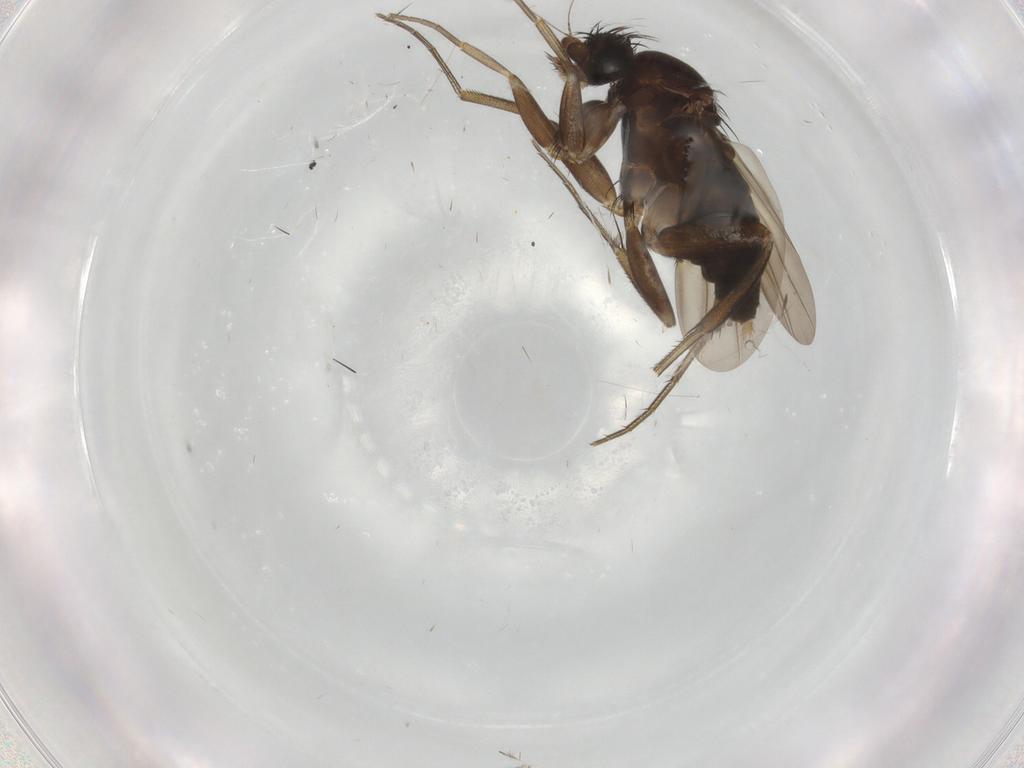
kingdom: Animalia
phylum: Arthropoda
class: Insecta
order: Diptera
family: Phoridae
